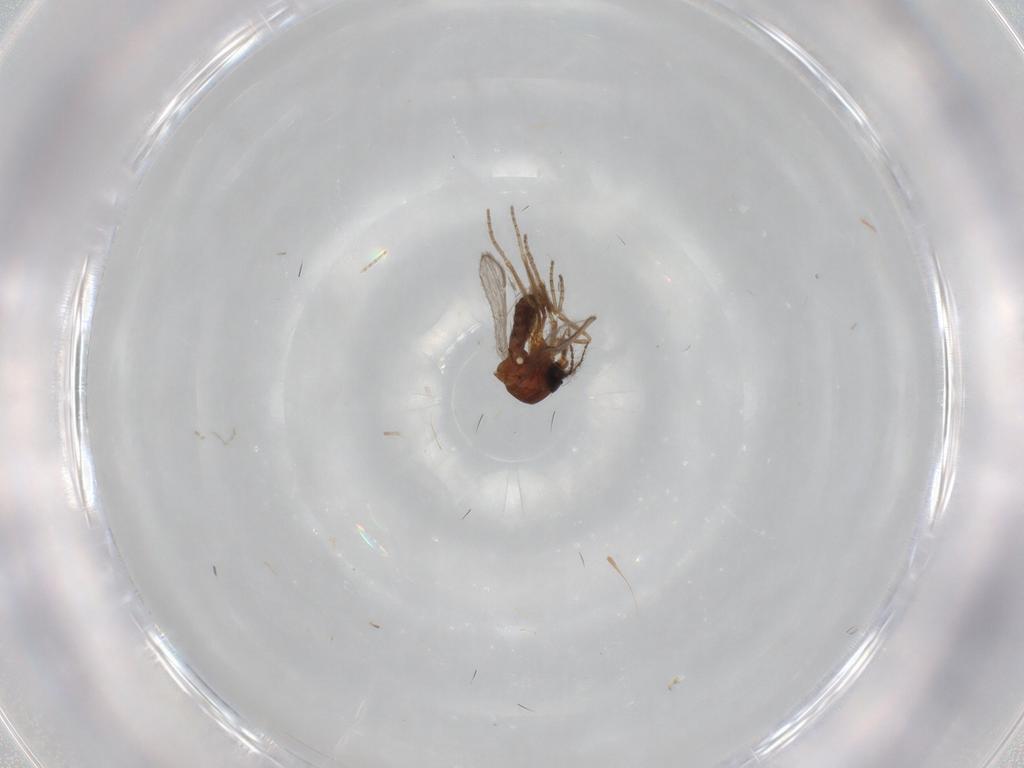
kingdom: Animalia
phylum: Arthropoda
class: Insecta
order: Diptera
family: Ceratopogonidae
